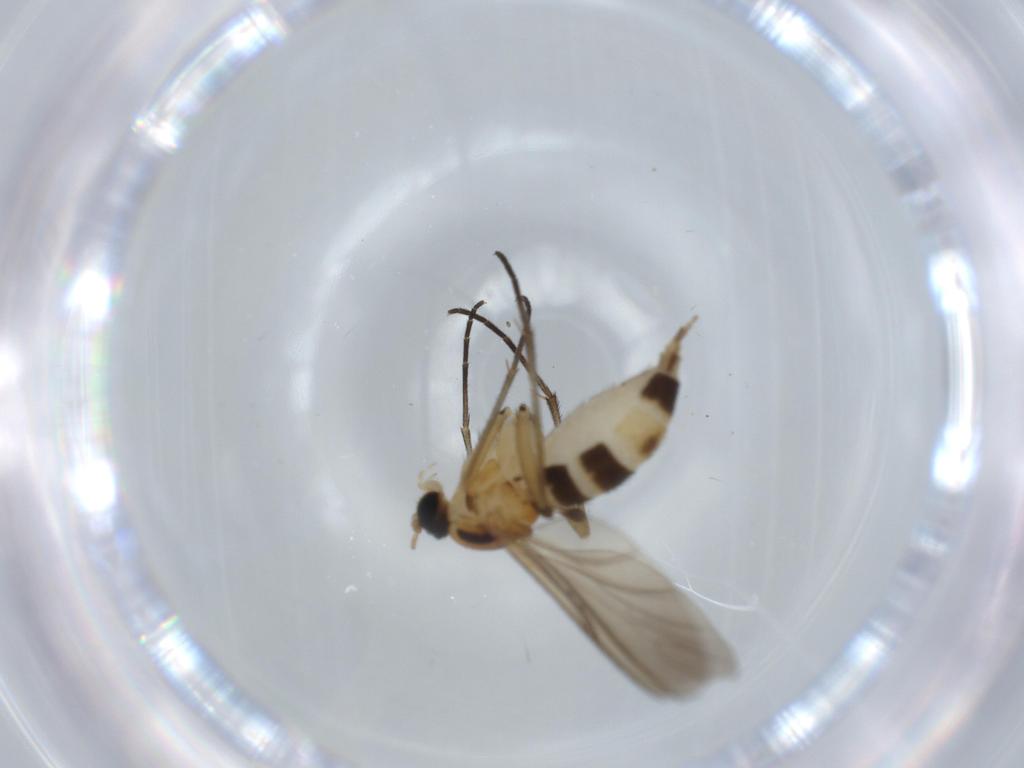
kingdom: Animalia
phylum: Arthropoda
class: Insecta
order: Diptera
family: Sciaridae
